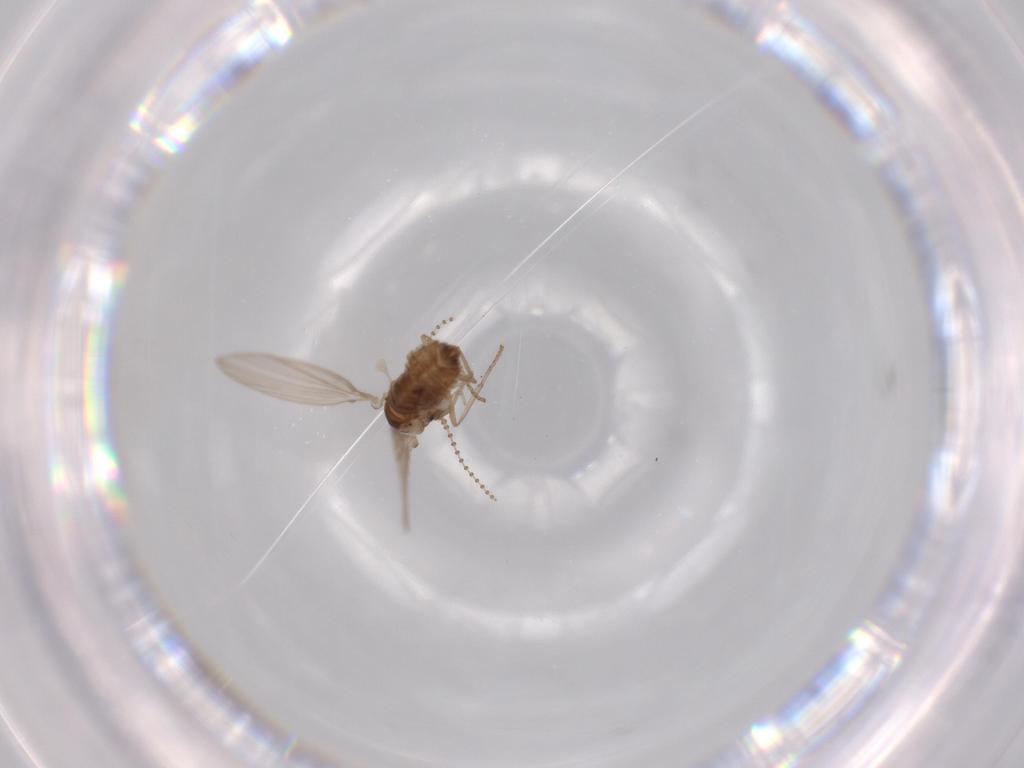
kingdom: Animalia
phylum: Arthropoda
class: Insecta
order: Diptera
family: Psychodidae
